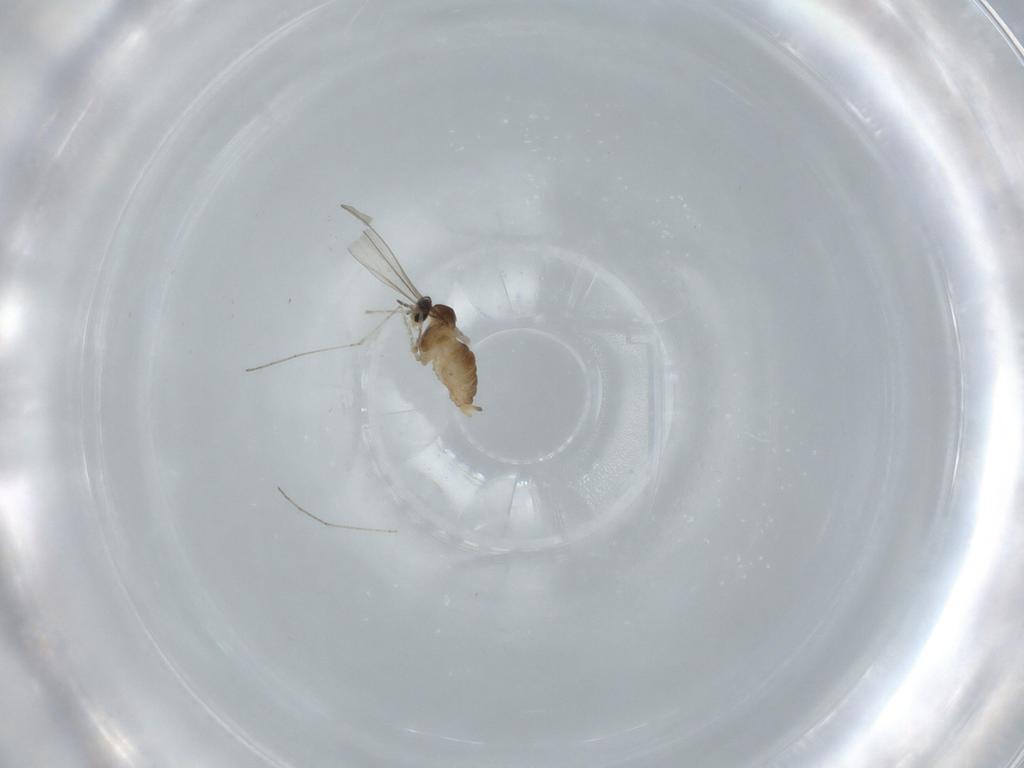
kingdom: Animalia
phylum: Arthropoda
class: Insecta
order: Diptera
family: Cecidomyiidae
